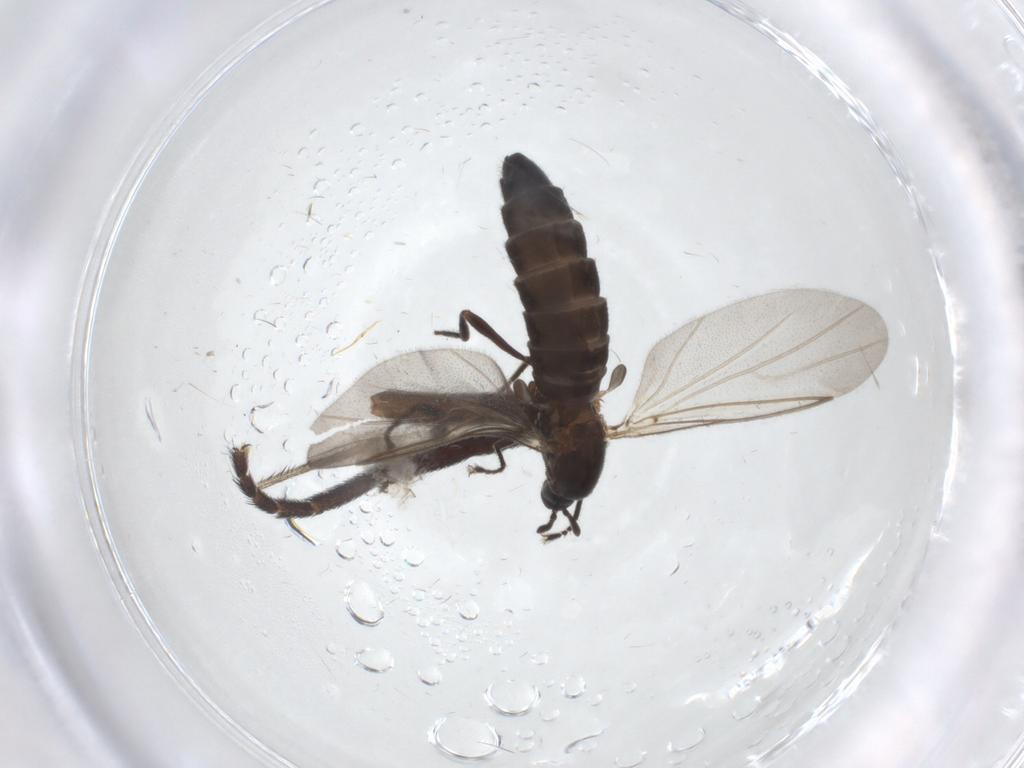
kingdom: Animalia
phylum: Arthropoda
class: Insecta
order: Diptera
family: Scatopsidae
